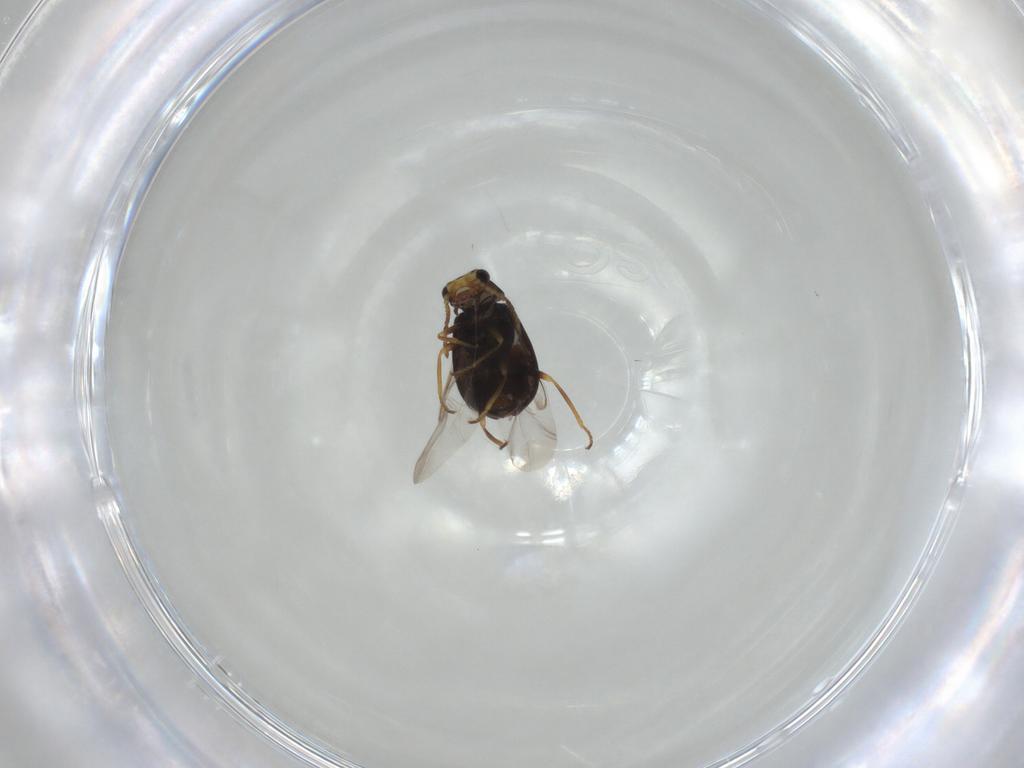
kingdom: Animalia
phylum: Arthropoda
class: Insecta
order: Coleoptera
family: Melyridae
